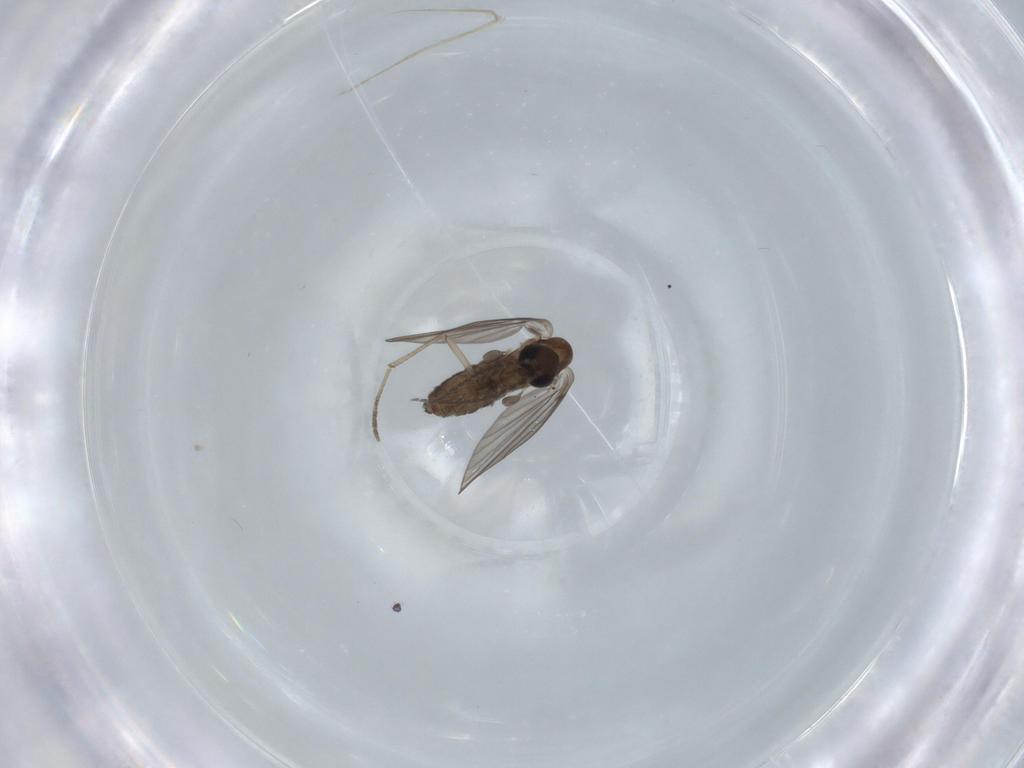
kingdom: Animalia
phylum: Arthropoda
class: Insecta
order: Diptera
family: Psychodidae
